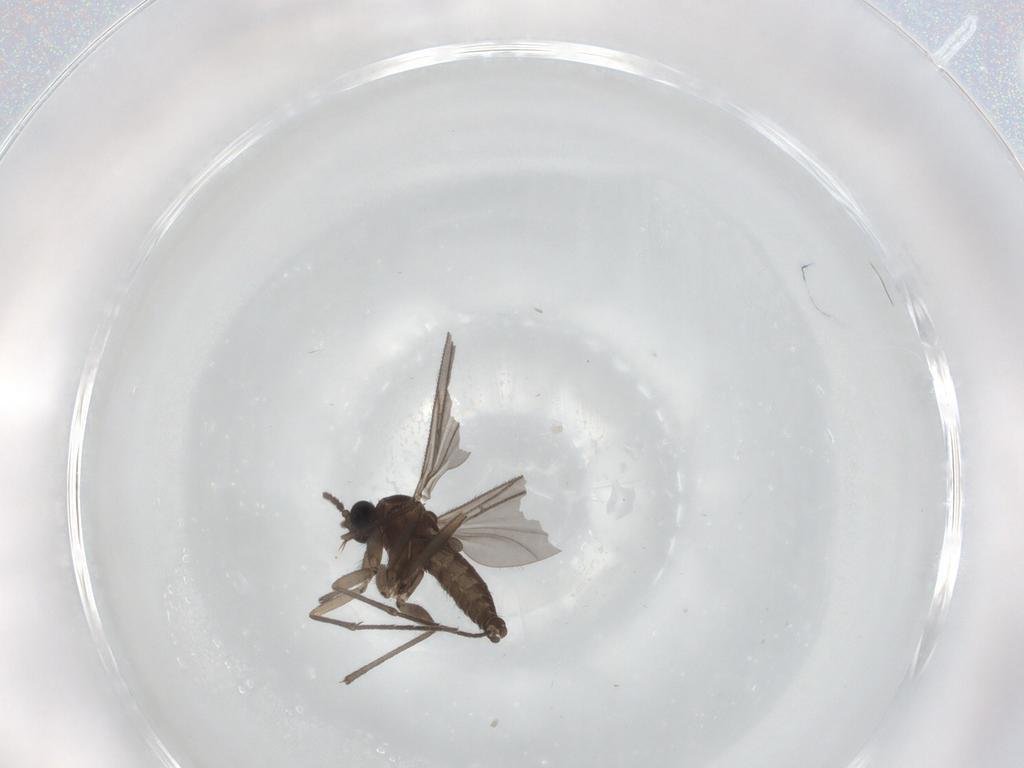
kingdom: Animalia
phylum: Arthropoda
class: Insecta
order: Diptera
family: Sciaridae
